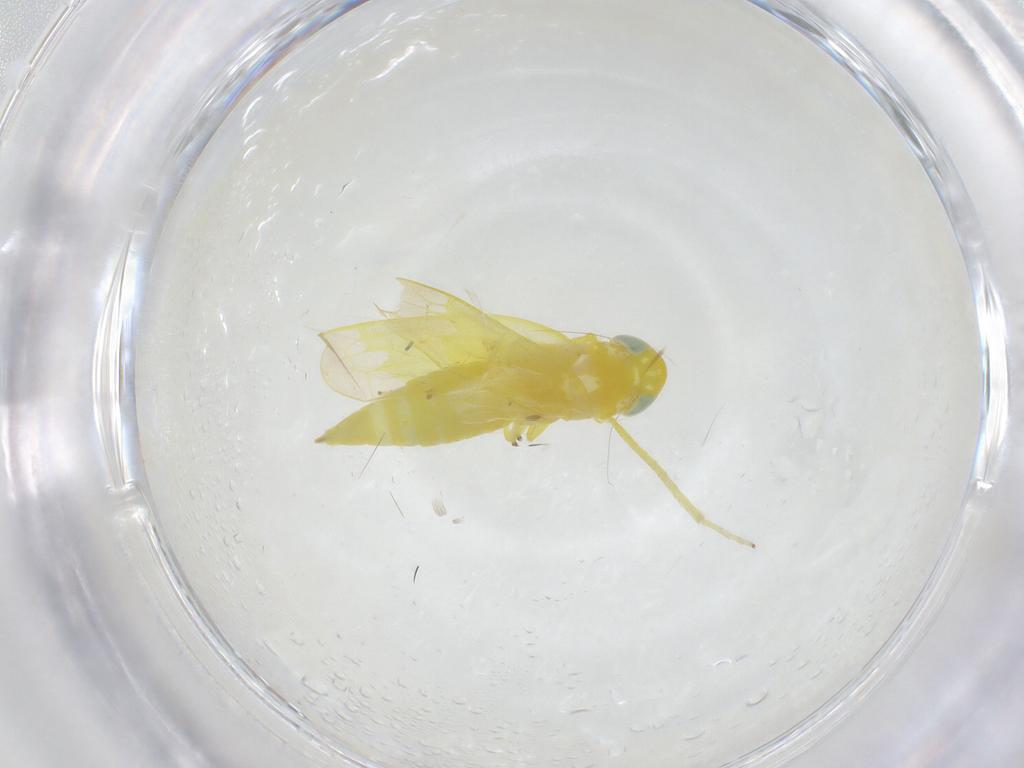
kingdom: Animalia
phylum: Arthropoda
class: Insecta
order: Hemiptera
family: Cicadellidae
